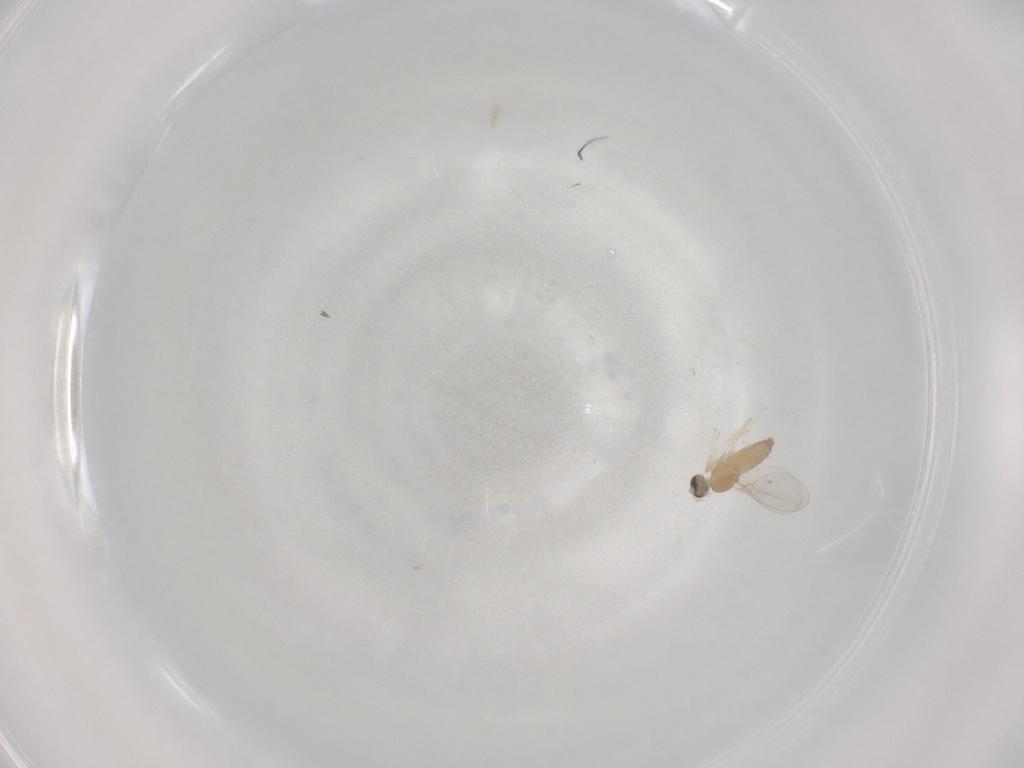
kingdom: Animalia
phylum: Arthropoda
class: Insecta
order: Diptera
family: Cecidomyiidae
